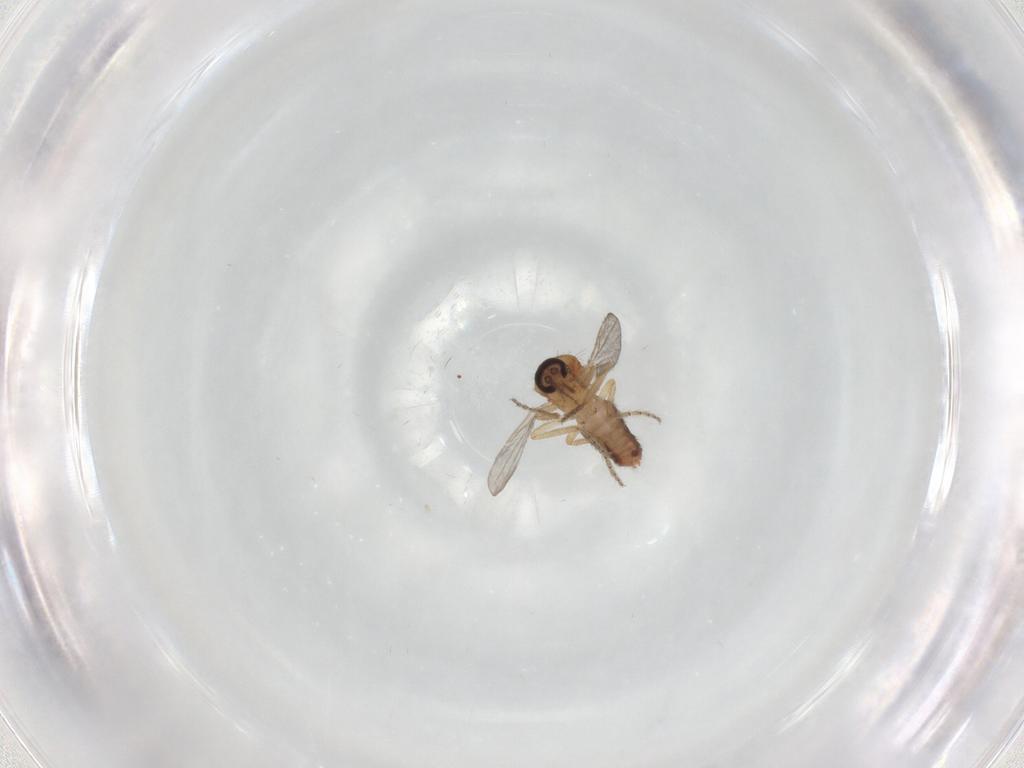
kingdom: Animalia
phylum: Arthropoda
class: Insecta
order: Diptera
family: Ceratopogonidae
